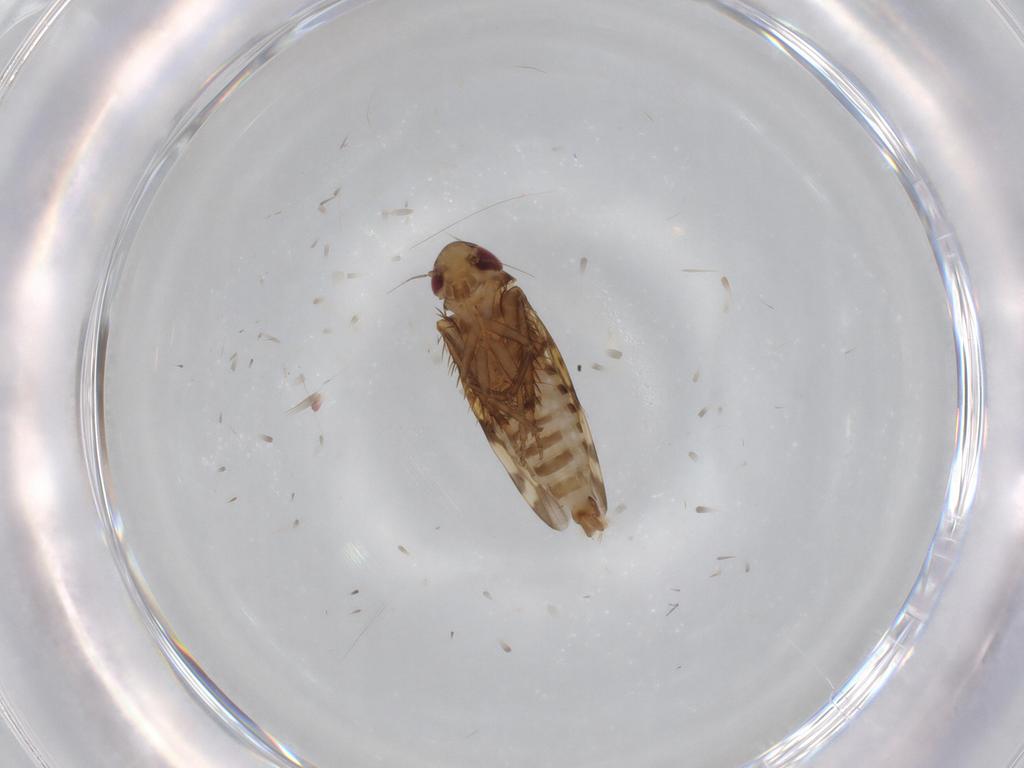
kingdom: Animalia
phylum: Arthropoda
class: Insecta
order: Hemiptera
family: Cicadellidae
